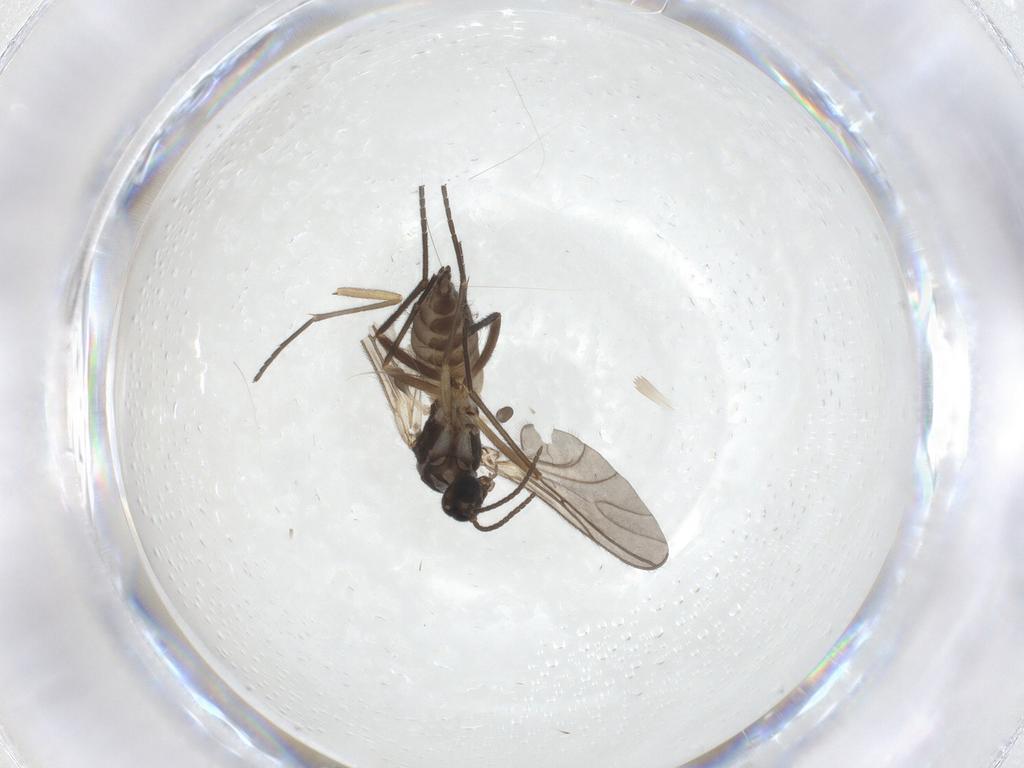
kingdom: Animalia
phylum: Arthropoda
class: Insecta
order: Diptera
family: Sciaridae
